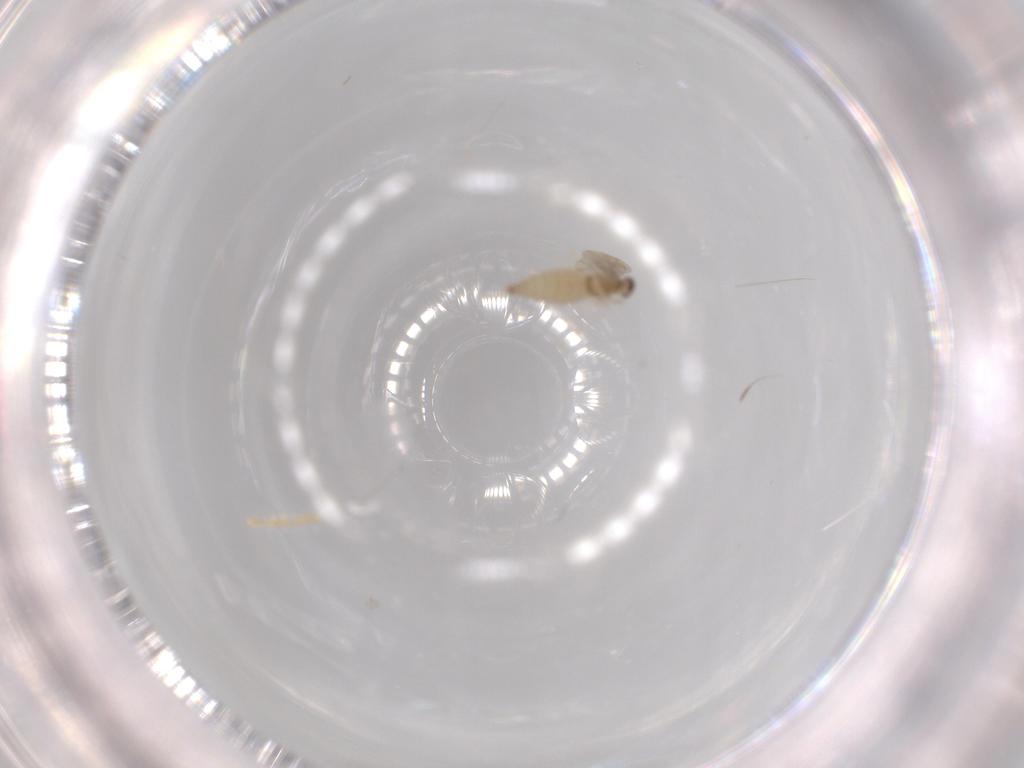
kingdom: Animalia
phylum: Arthropoda
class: Insecta
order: Diptera
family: Cecidomyiidae
